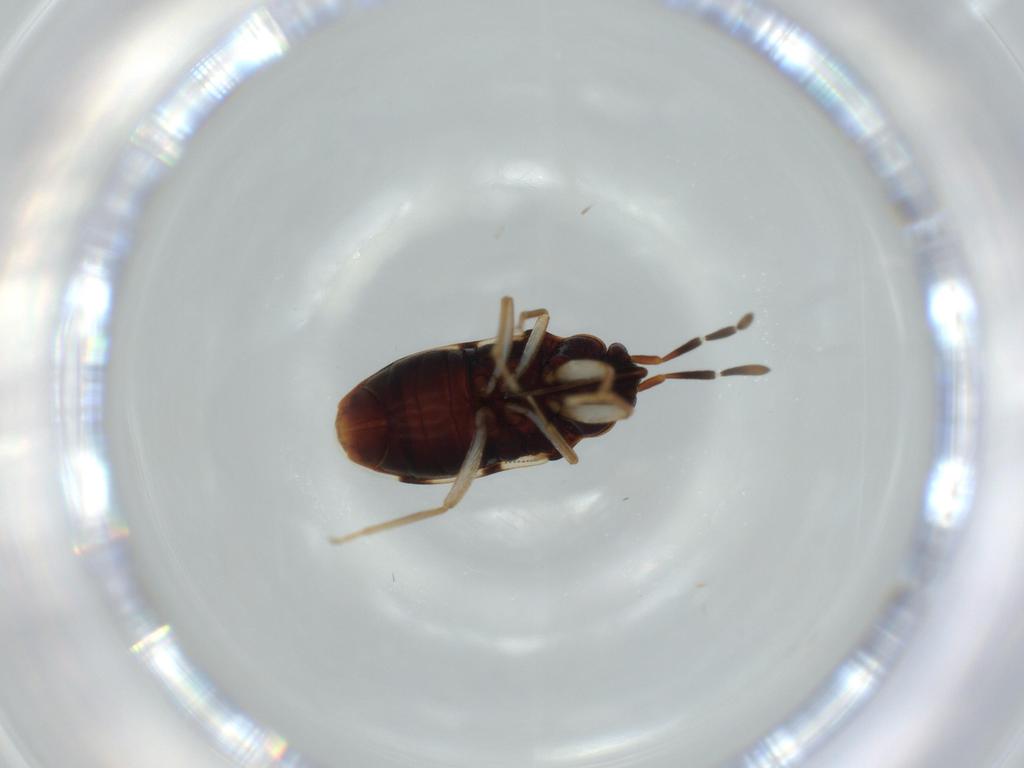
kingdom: Animalia
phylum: Arthropoda
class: Insecta
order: Hemiptera
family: Rhyparochromidae
